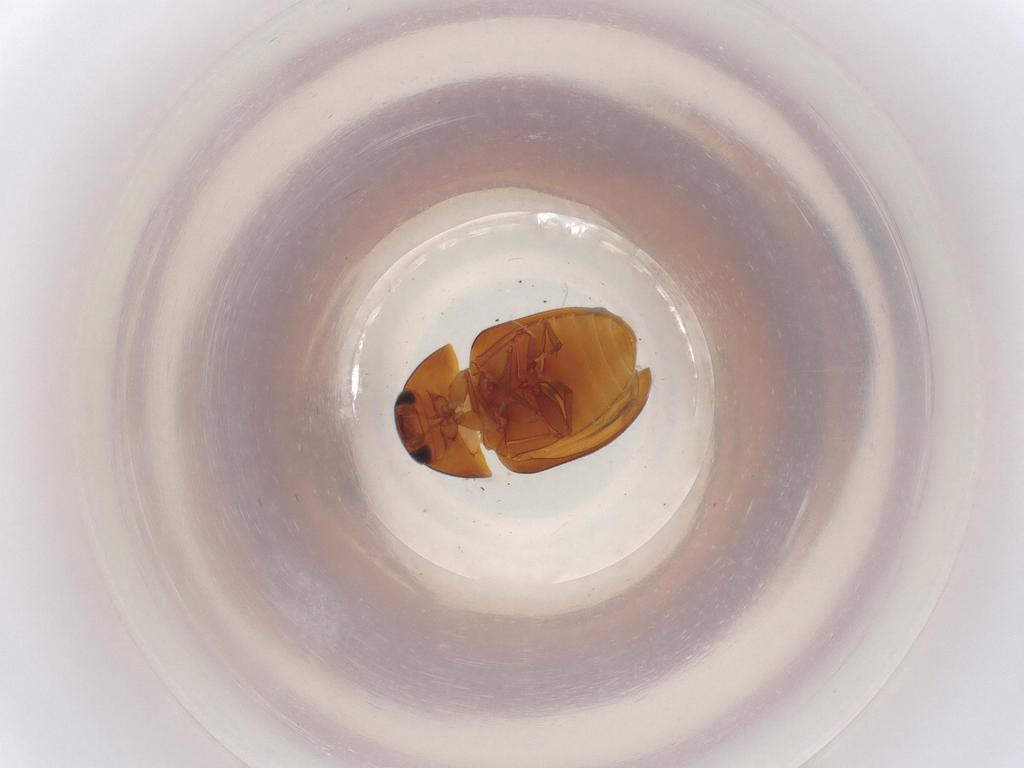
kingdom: Animalia
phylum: Arthropoda
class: Insecta
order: Coleoptera
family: Phalacridae
